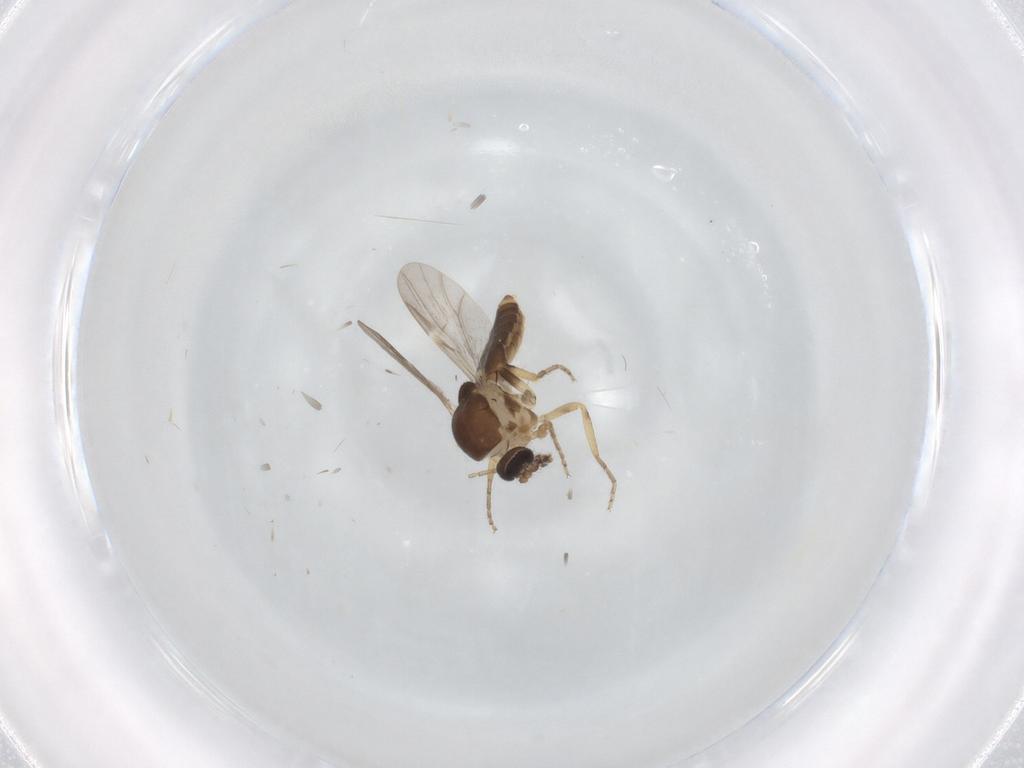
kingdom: Animalia
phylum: Arthropoda
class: Insecta
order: Diptera
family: Ceratopogonidae
